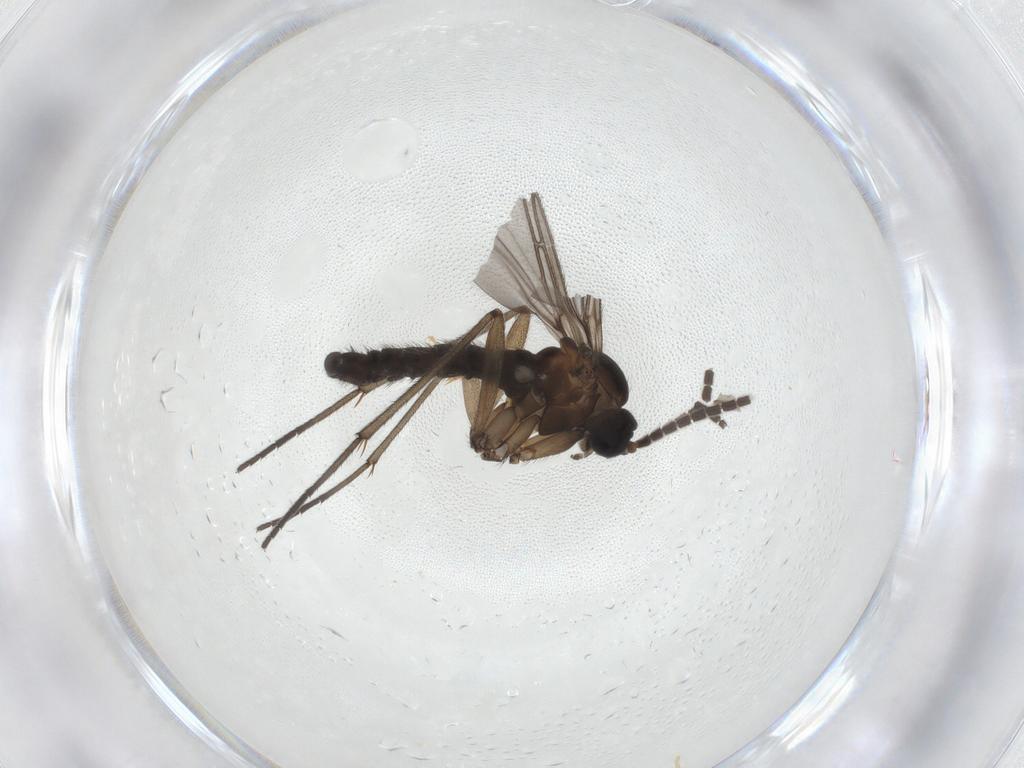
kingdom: Animalia
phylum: Arthropoda
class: Insecta
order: Diptera
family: Sciaridae
